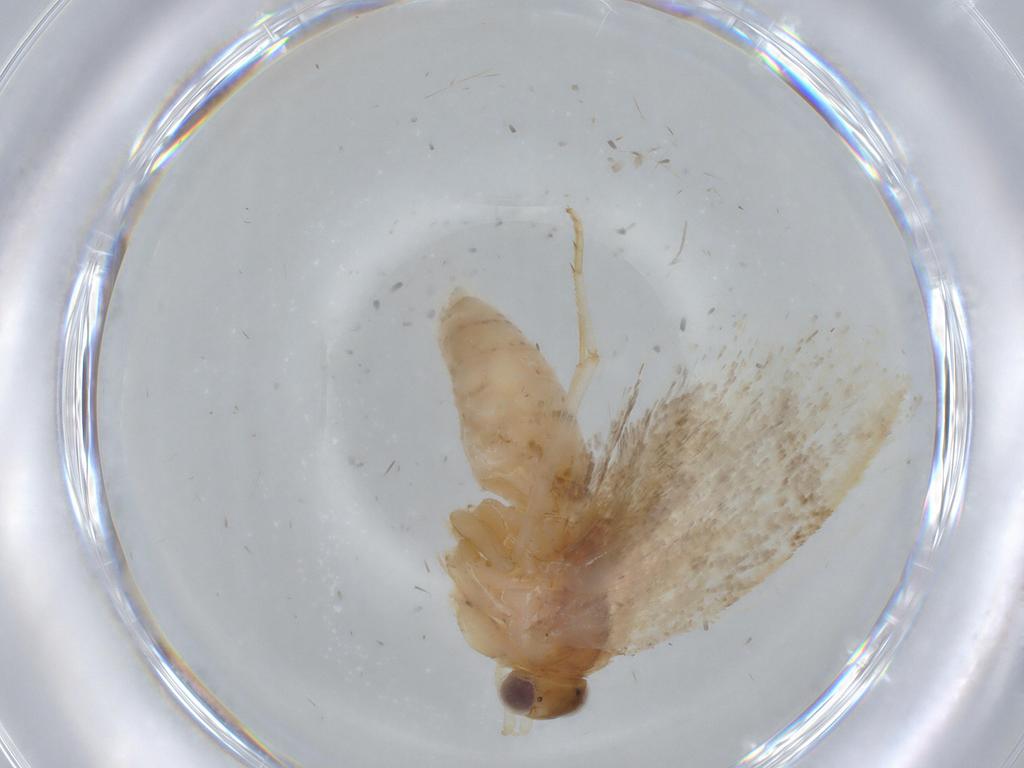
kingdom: Animalia
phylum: Arthropoda
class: Insecta
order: Lepidoptera
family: Tortricidae
